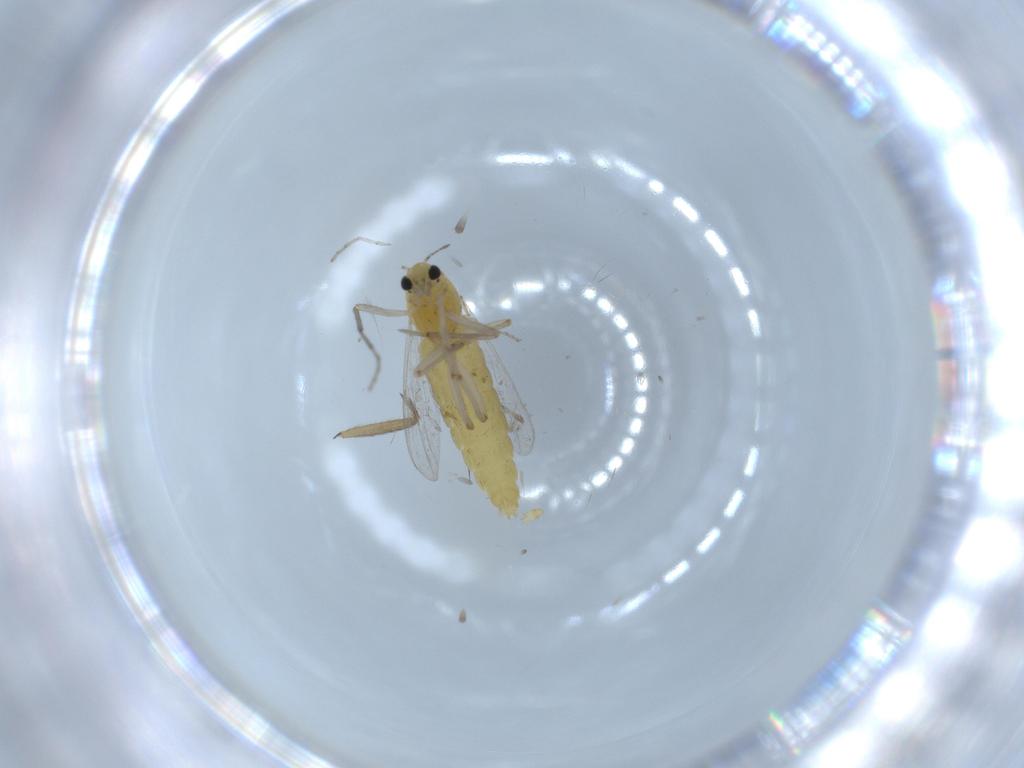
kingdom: Animalia
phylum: Arthropoda
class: Insecta
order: Diptera
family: Chironomidae
